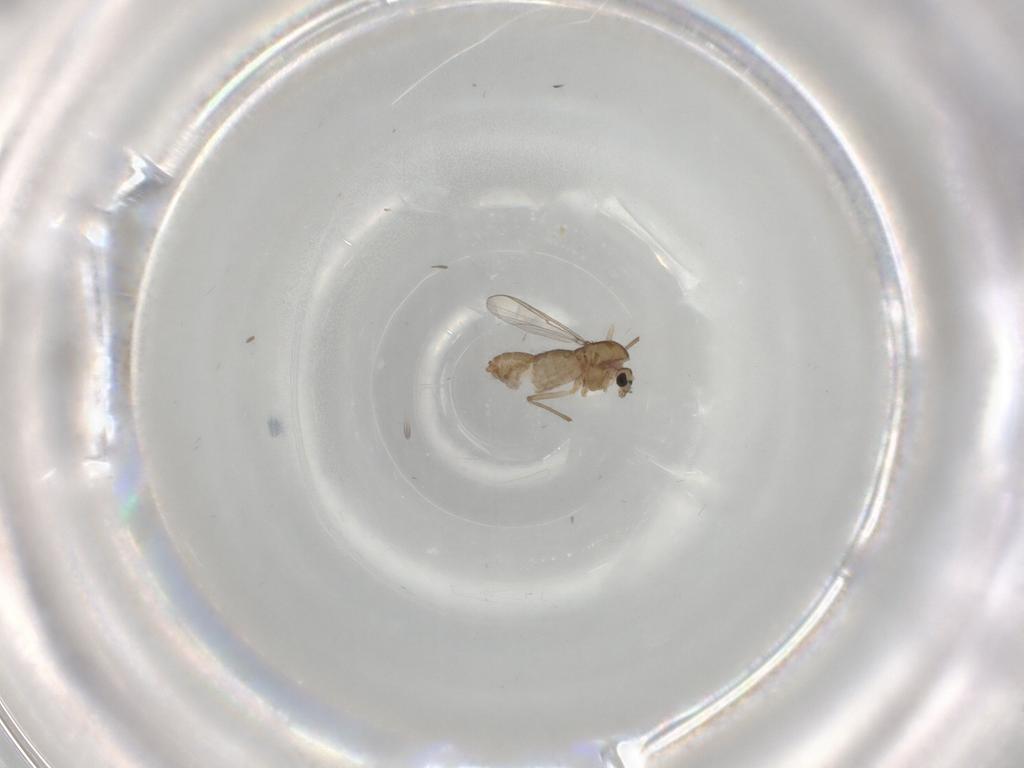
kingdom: Animalia
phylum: Arthropoda
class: Insecta
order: Diptera
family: Chironomidae
